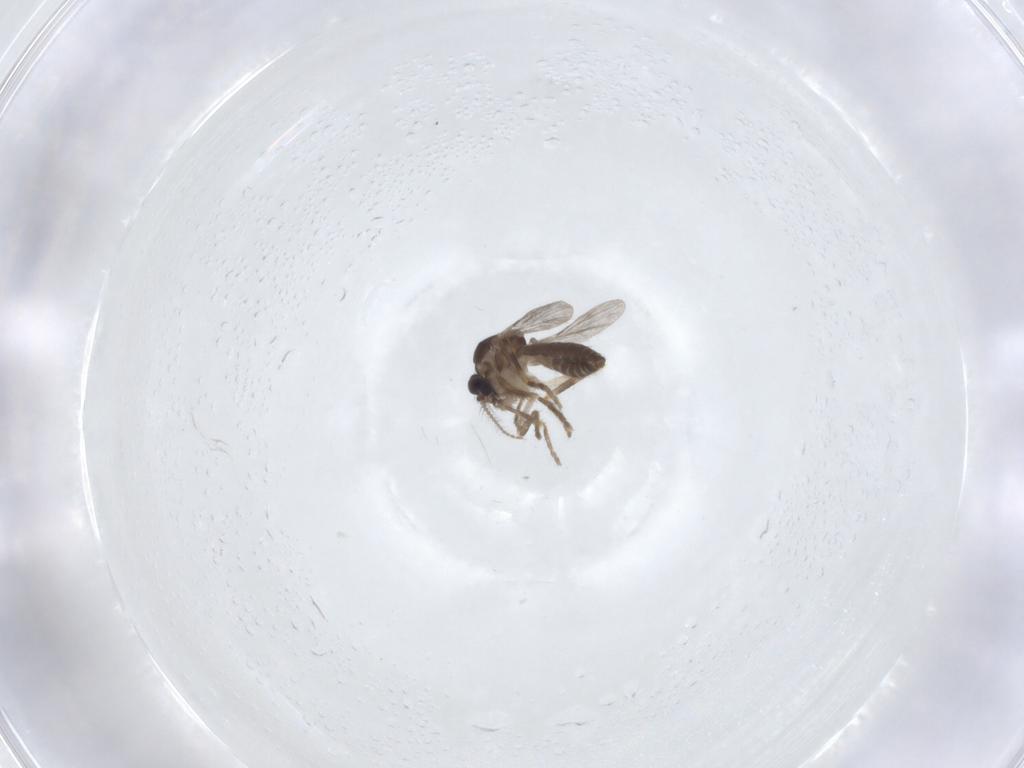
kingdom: Animalia
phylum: Arthropoda
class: Insecta
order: Diptera
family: Ceratopogonidae
